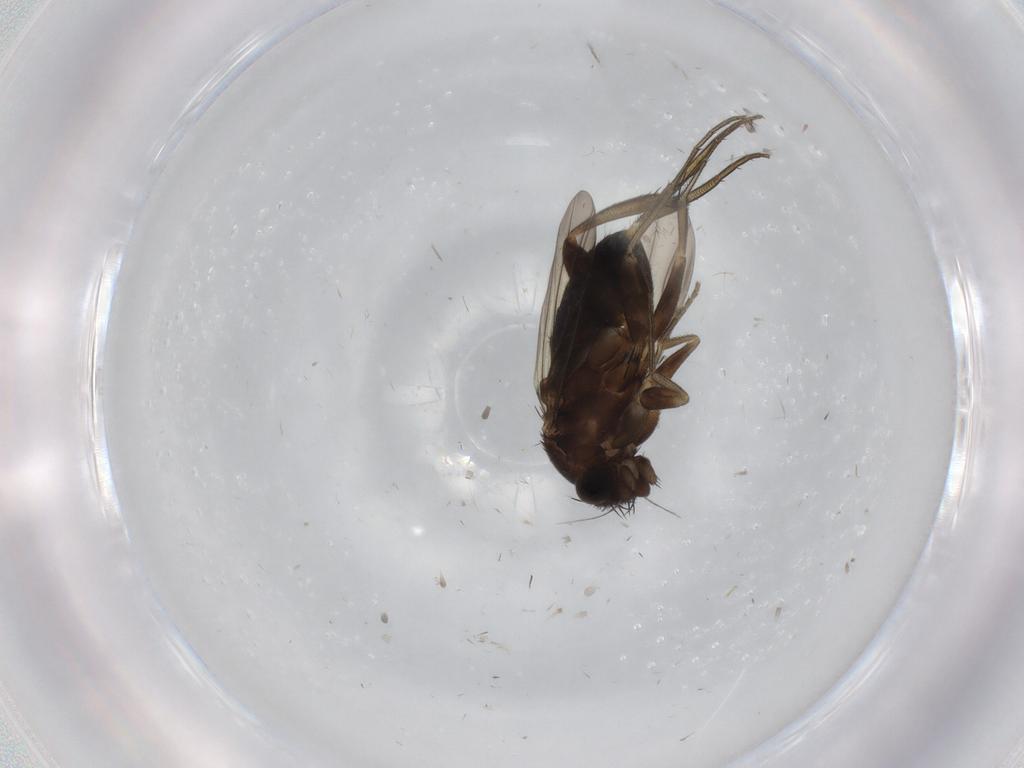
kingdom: Animalia
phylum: Arthropoda
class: Insecta
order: Diptera
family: Phoridae
